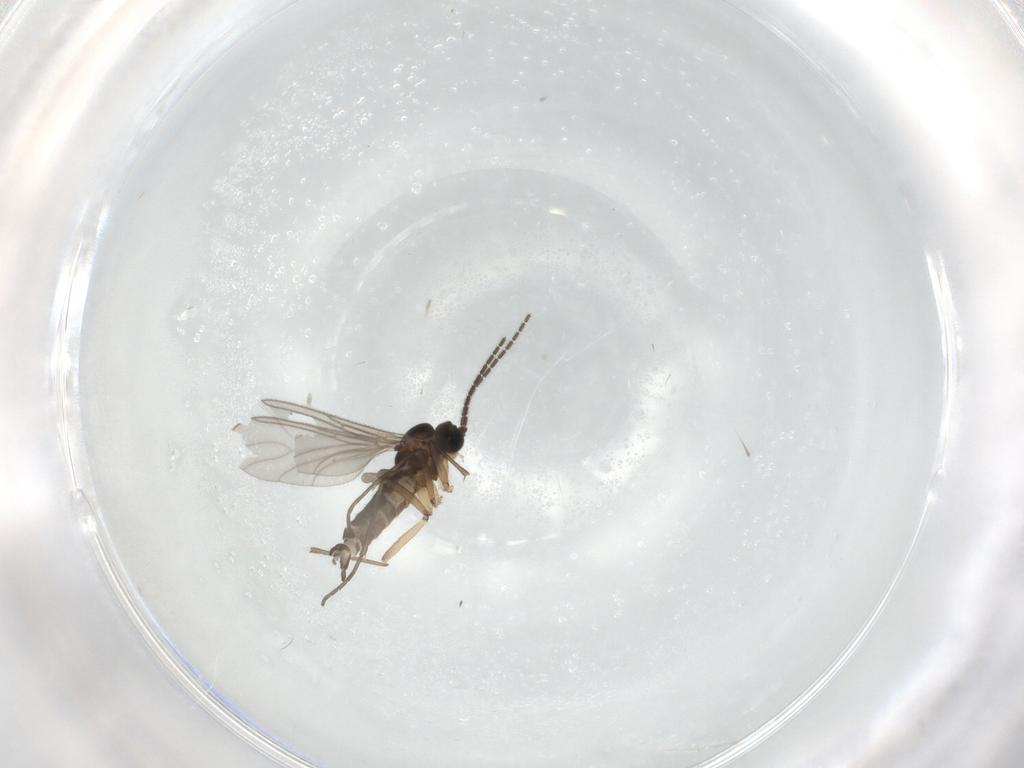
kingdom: Animalia
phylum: Arthropoda
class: Insecta
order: Diptera
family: Sciaridae
